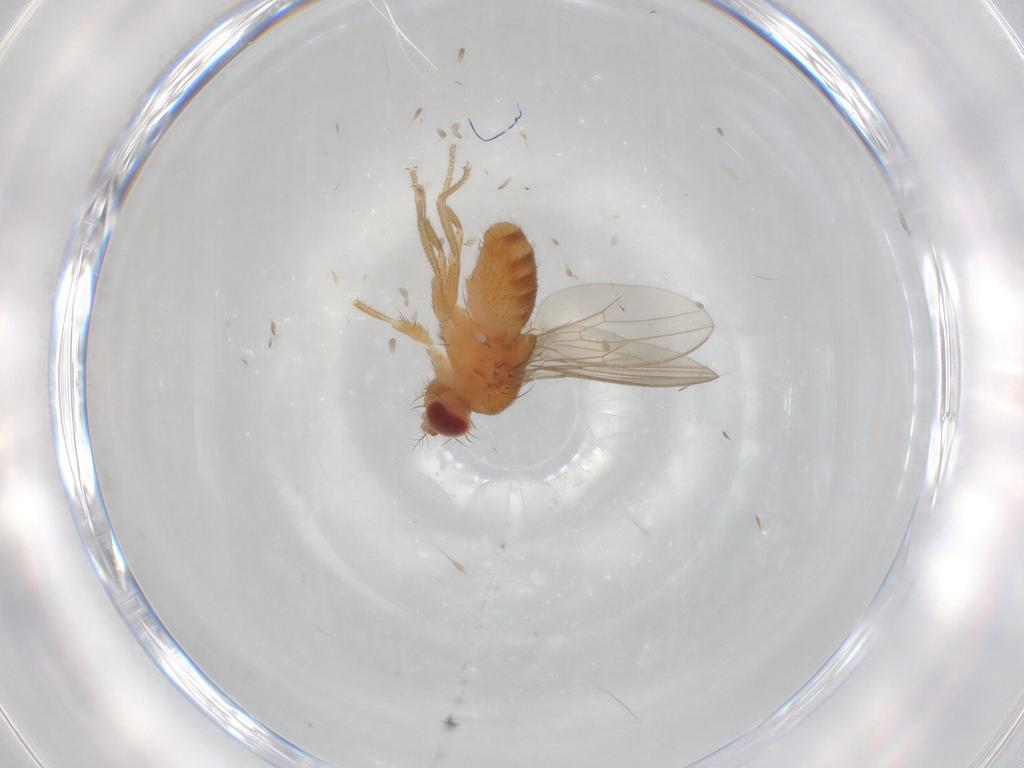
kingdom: Animalia
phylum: Arthropoda
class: Insecta
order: Diptera
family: Drosophilidae
